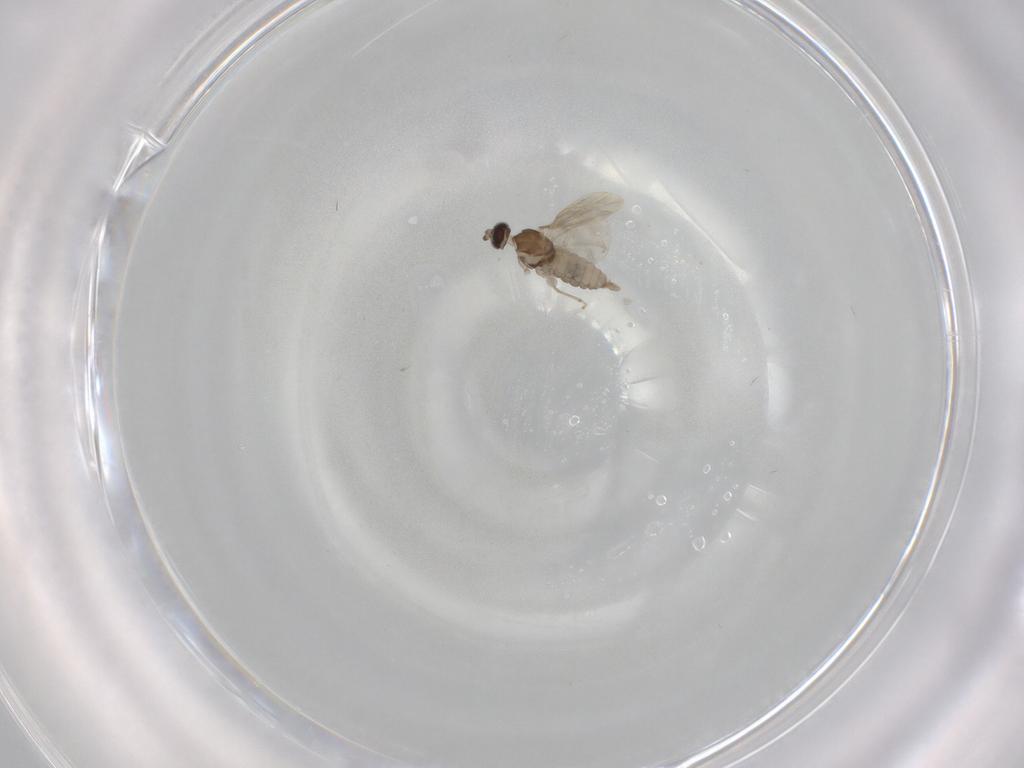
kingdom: Animalia
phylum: Arthropoda
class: Insecta
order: Diptera
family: Cecidomyiidae
